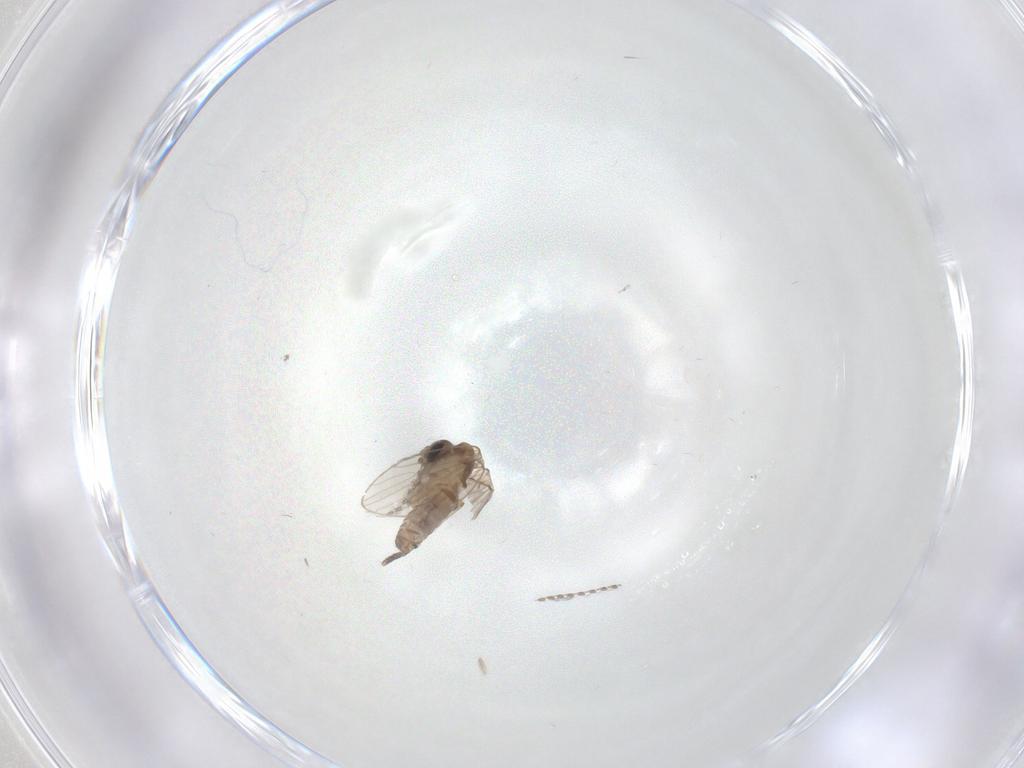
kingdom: Animalia
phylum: Arthropoda
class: Insecta
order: Diptera
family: Psychodidae
